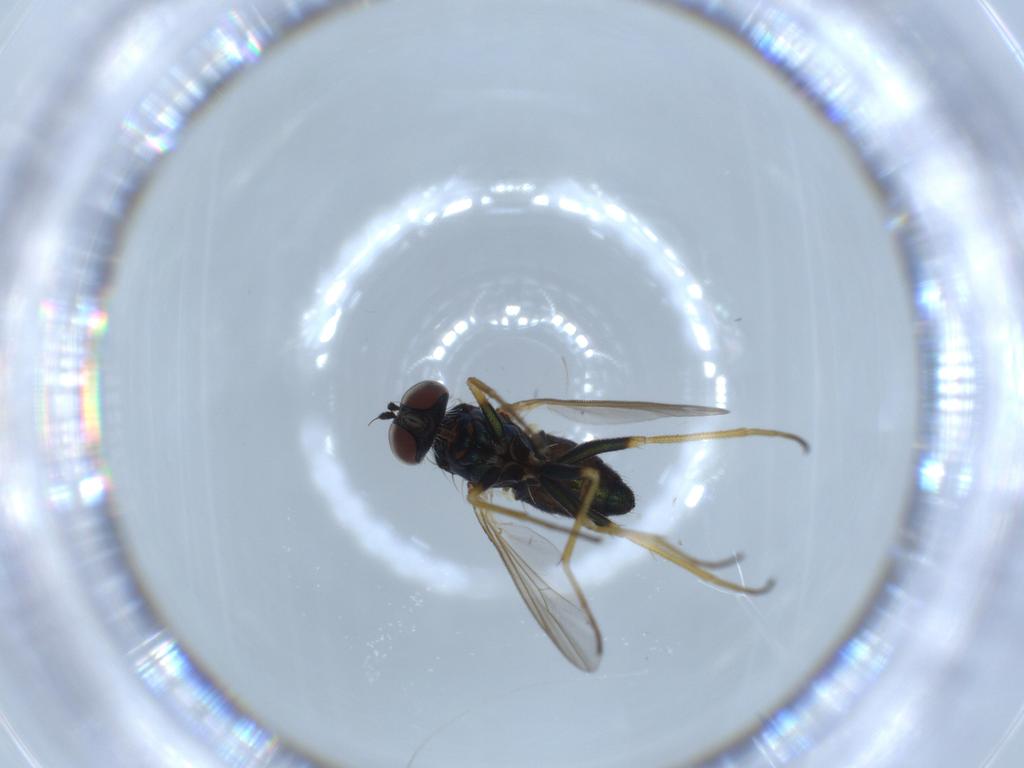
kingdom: Animalia
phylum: Arthropoda
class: Insecta
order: Diptera
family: Dolichopodidae
